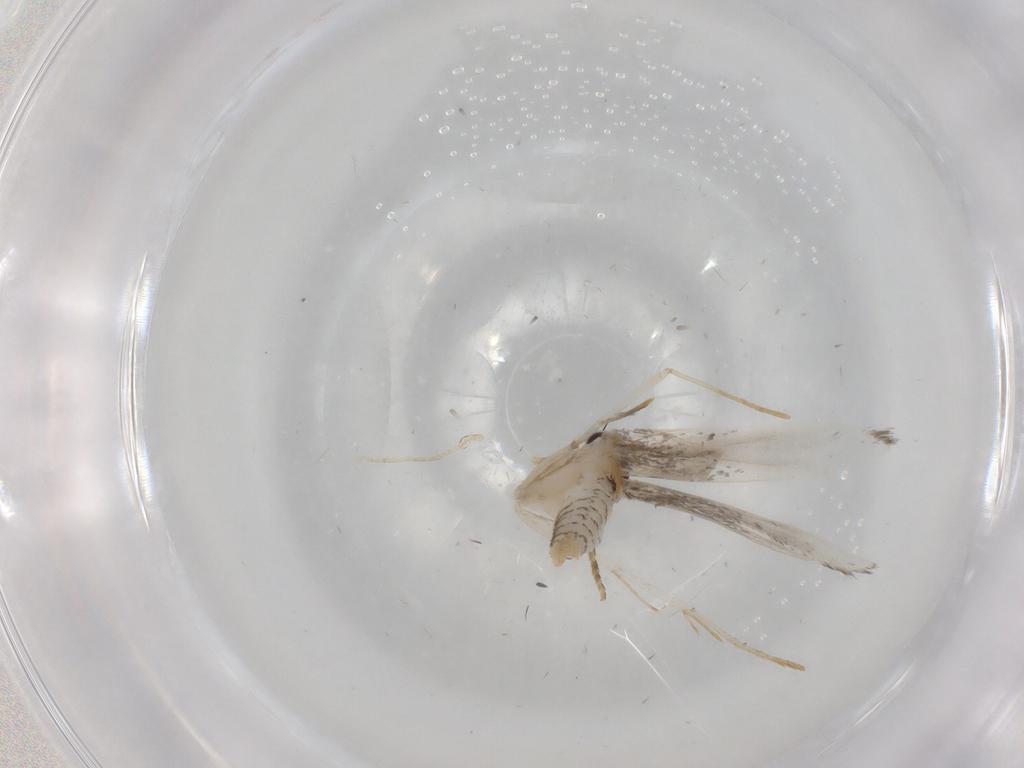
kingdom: Animalia
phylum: Arthropoda
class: Insecta
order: Lepidoptera
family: Tineidae
